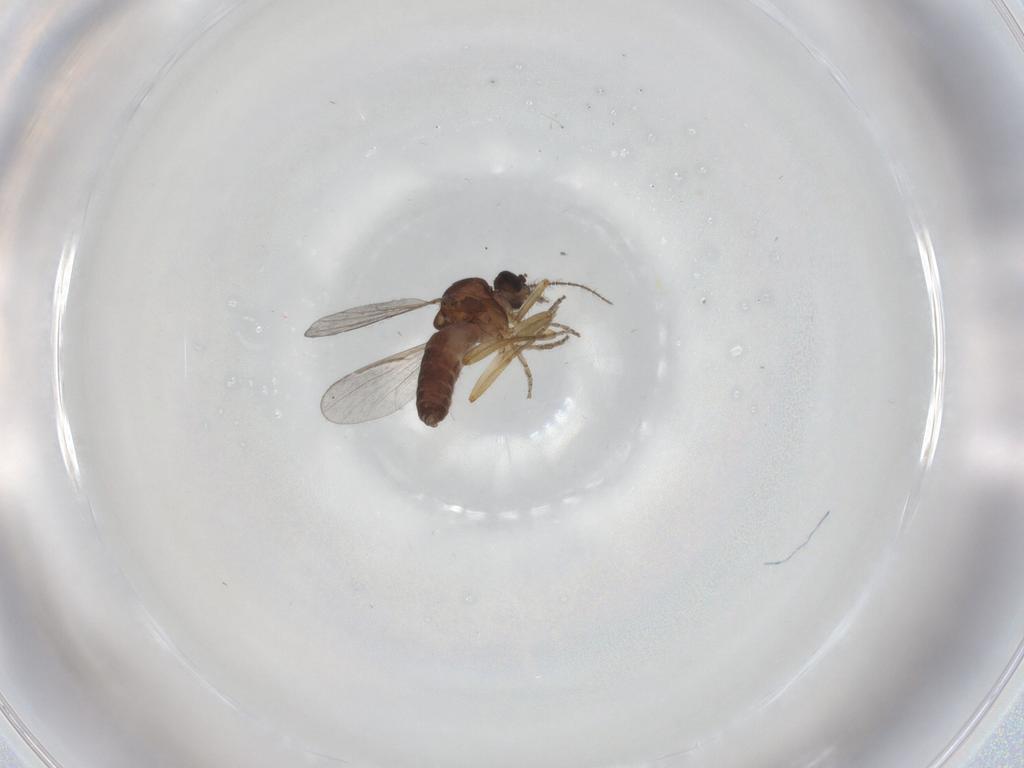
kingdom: Animalia
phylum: Arthropoda
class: Insecta
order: Diptera
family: Ceratopogonidae
